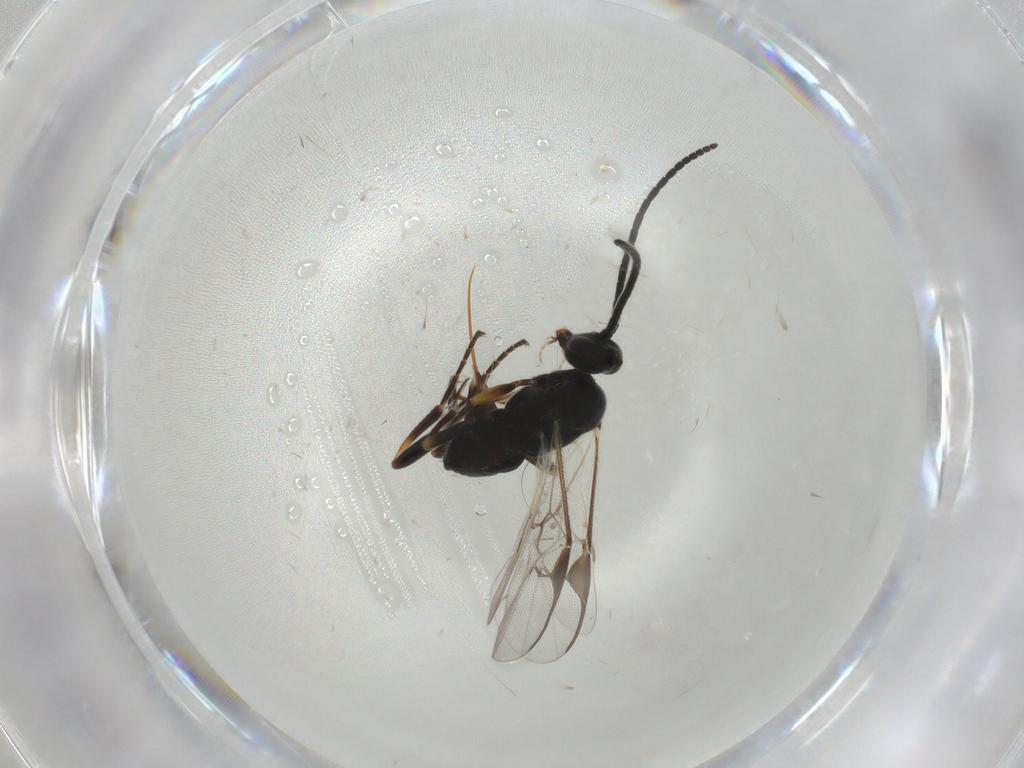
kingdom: Animalia
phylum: Arthropoda
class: Insecta
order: Hymenoptera
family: Braconidae
